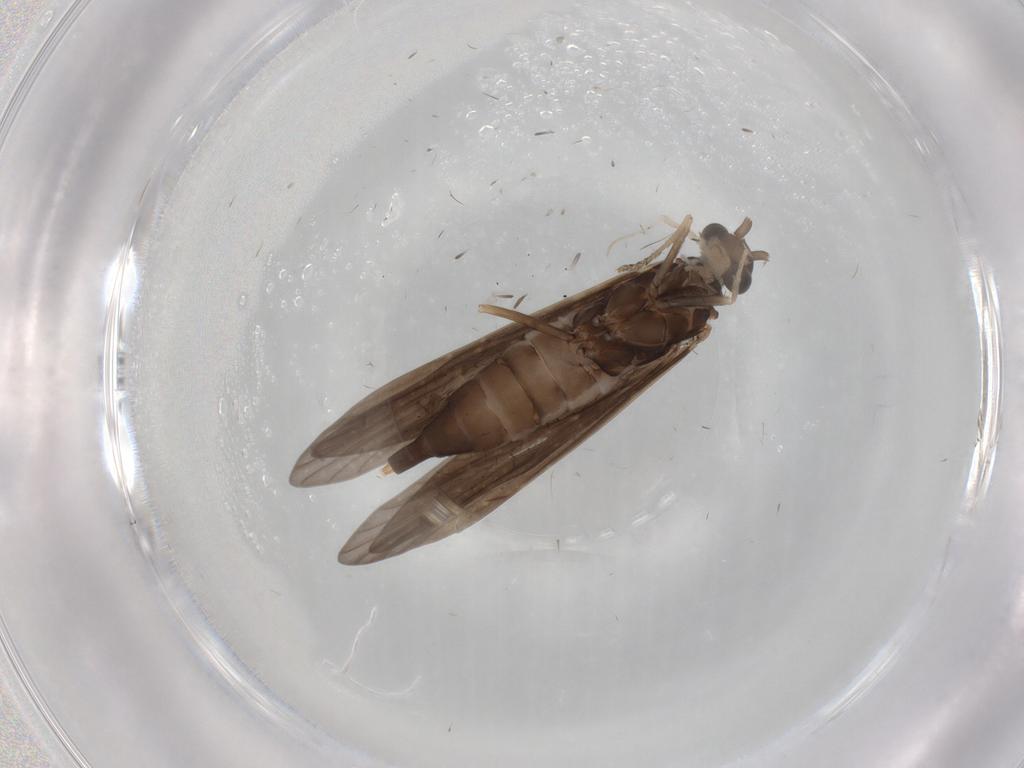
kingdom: Animalia
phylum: Arthropoda
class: Insecta
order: Trichoptera
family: Xiphocentronidae
